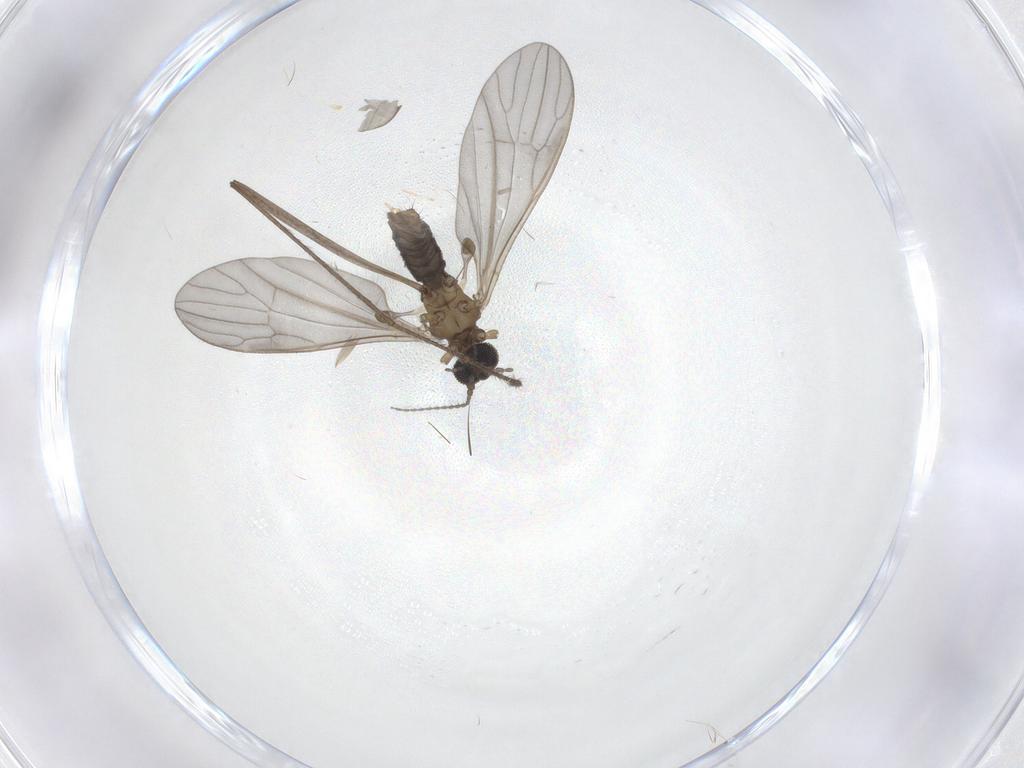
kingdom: Animalia
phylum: Arthropoda
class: Insecta
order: Diptera
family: Limoniidae
